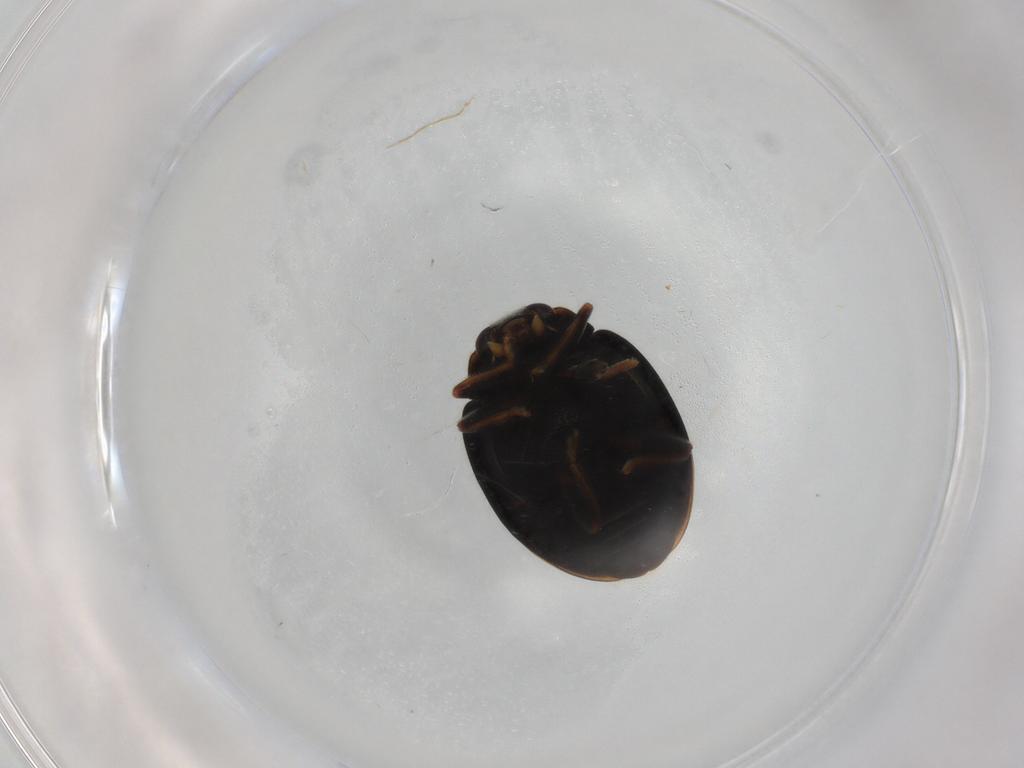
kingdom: Animalia
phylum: Arthropoda
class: Insecta
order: Coleoptera
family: Coccinellidae
